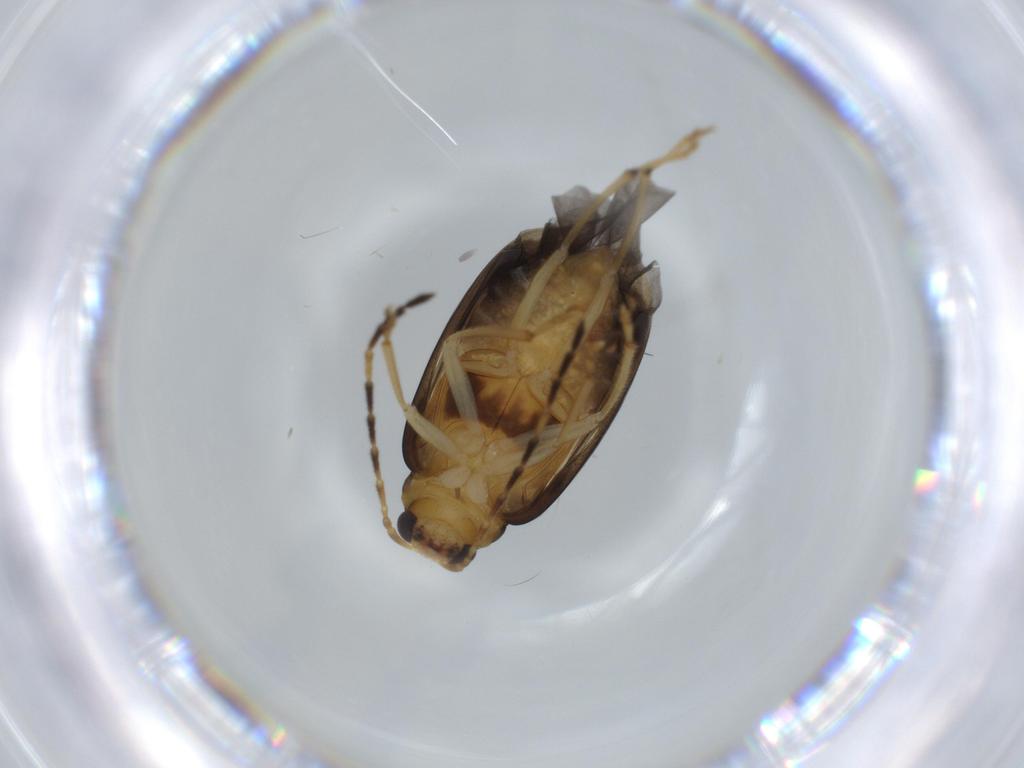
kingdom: Animalia
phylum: Arthropoda
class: Insecta
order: Coleoptera
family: Chrysomelidae
